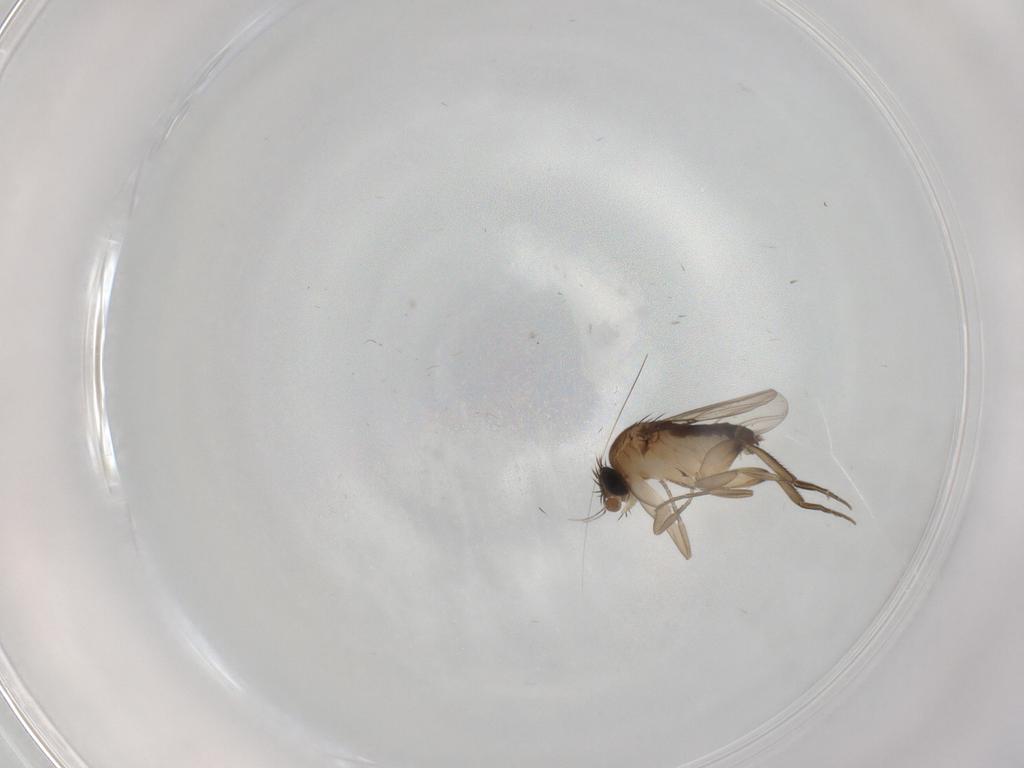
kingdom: Animalia
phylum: Arthropoda
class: Insecta
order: Diptera
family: Phoridae
